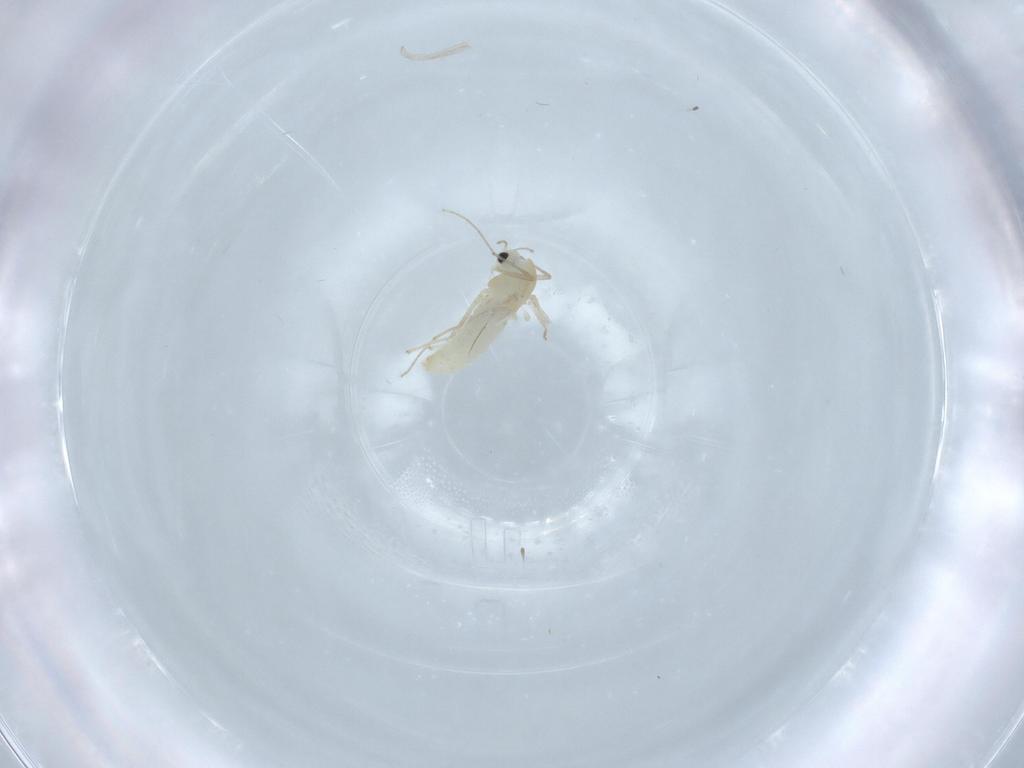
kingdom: Animalia
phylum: Arthropoda
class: Insecta
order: Diptera
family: Chironomidae
